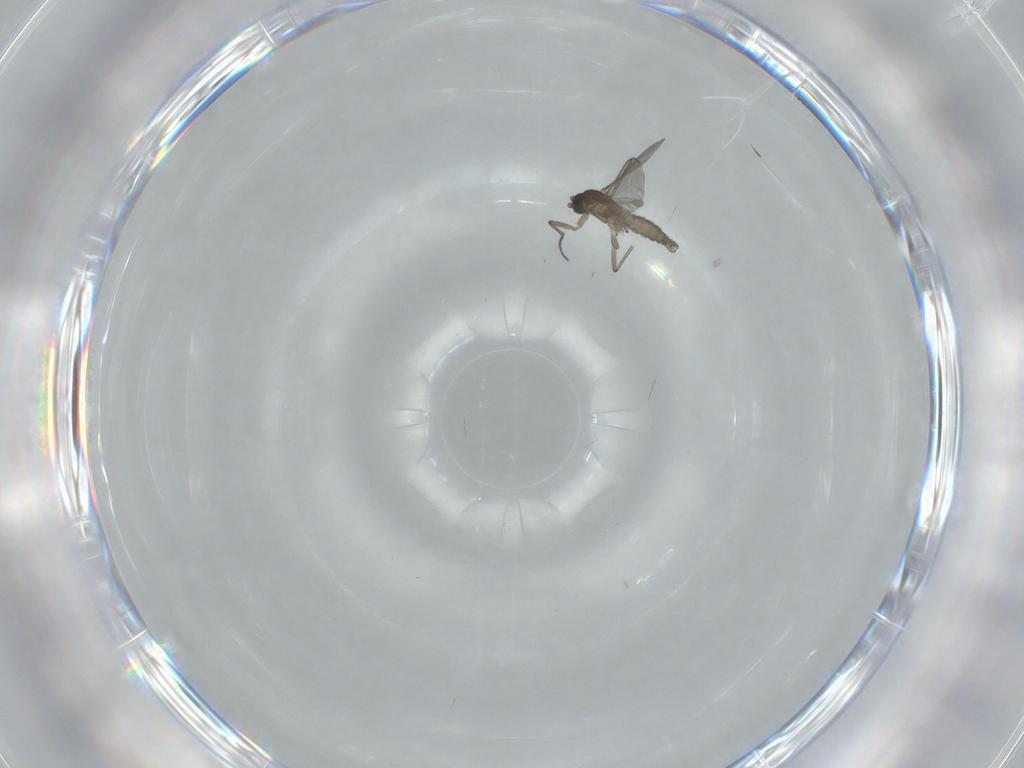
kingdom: Animalia
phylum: Arthropoda
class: Insecta
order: Diptera
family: Sciaridae
